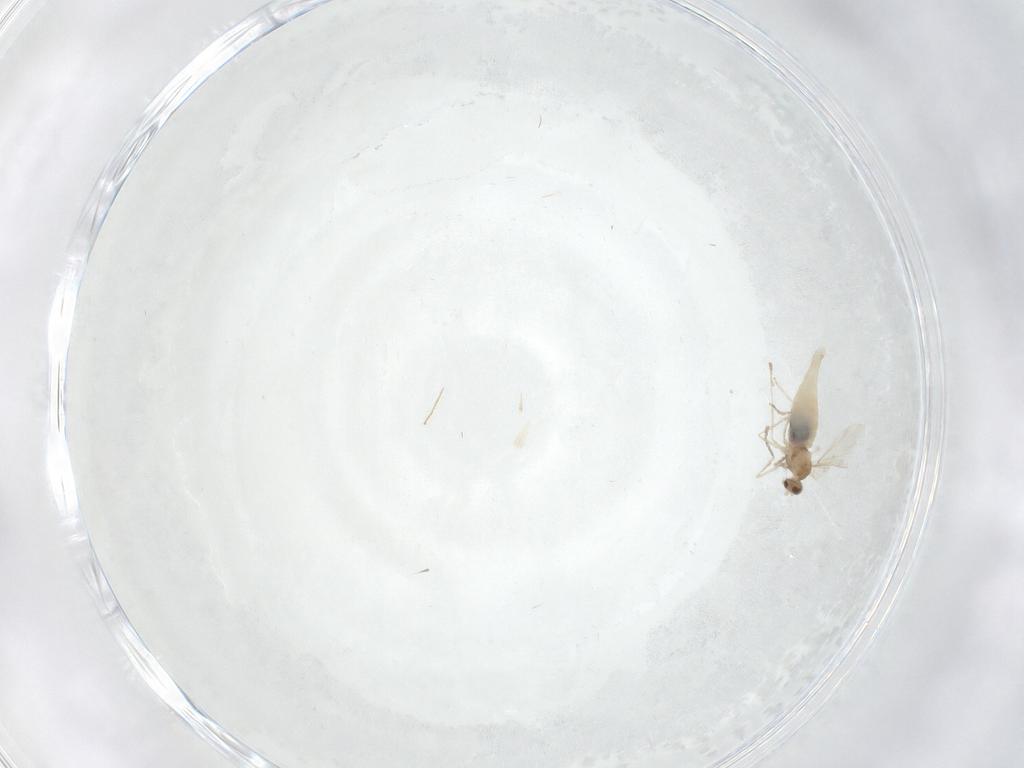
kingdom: Animalia
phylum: Arthropoda
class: Insecta
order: Diptera
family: Cecidomyiidae
